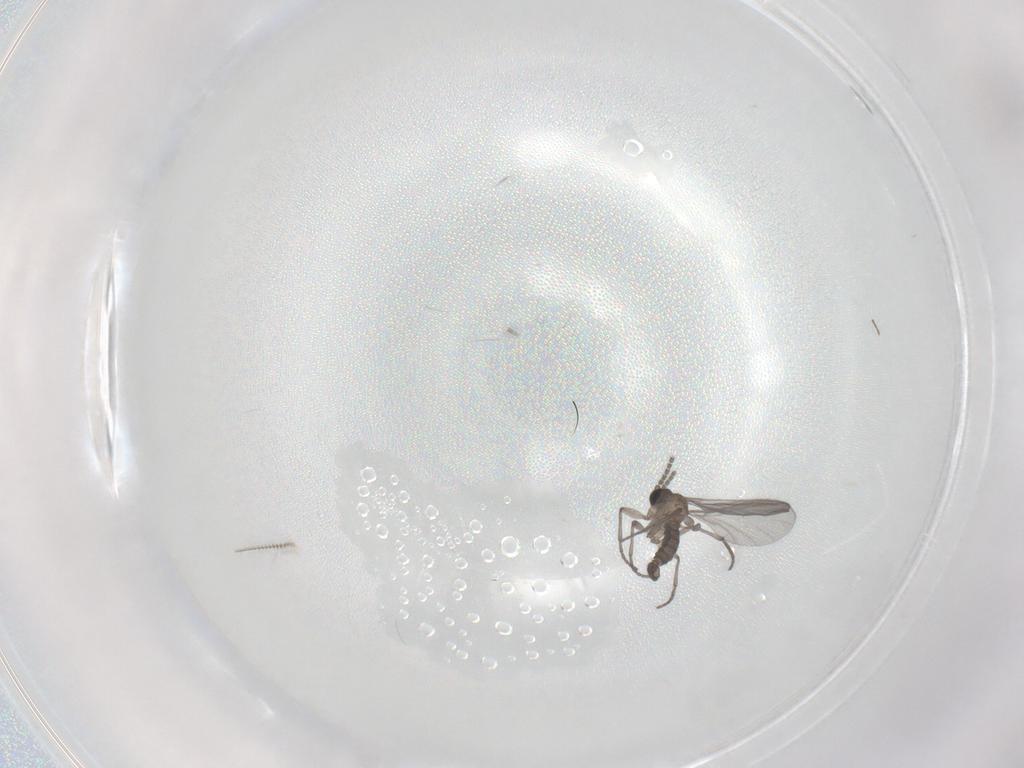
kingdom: Animalia
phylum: Arthropoda
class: Insecta
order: Diptera
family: Sciaridae
